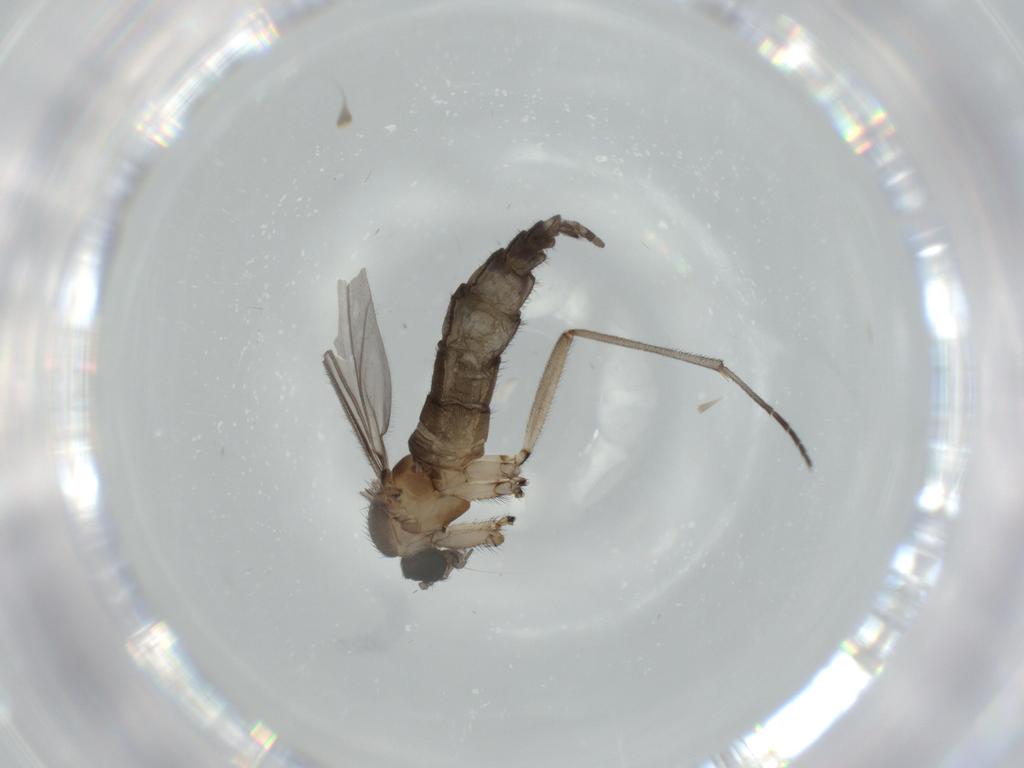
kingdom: Animalia
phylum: Arthropoda
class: Insecta
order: Diptera
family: Sciaridae
